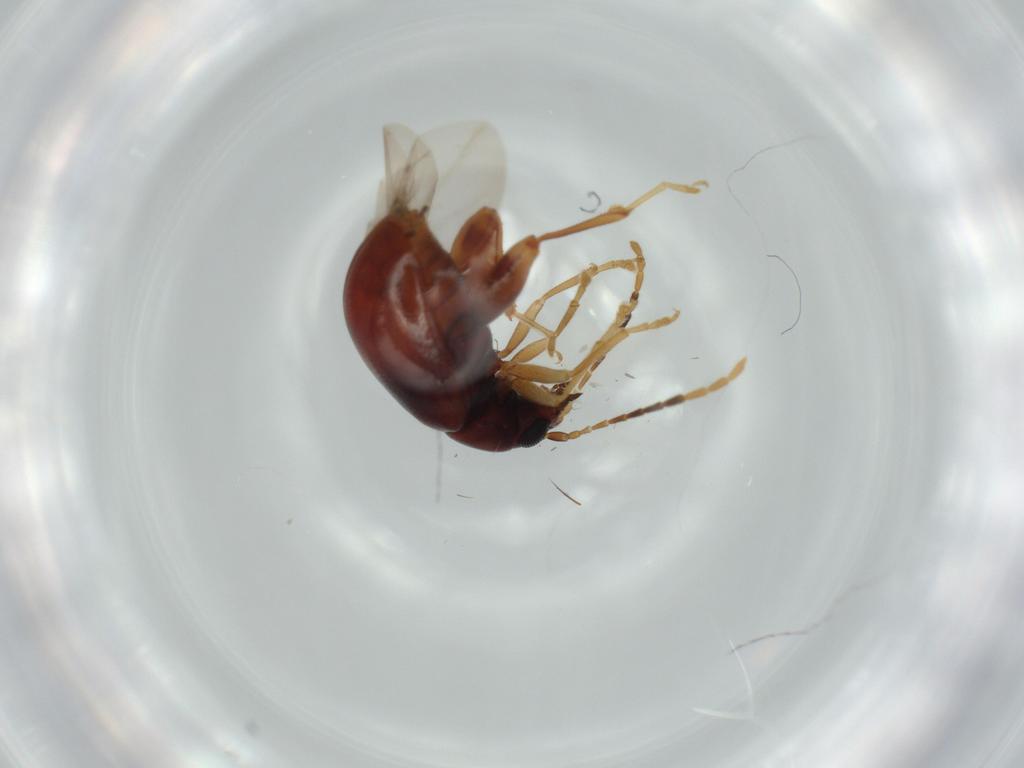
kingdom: Animalia
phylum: Arthropoda
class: Insecta
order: Coleoptera
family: Chrysomelidae
